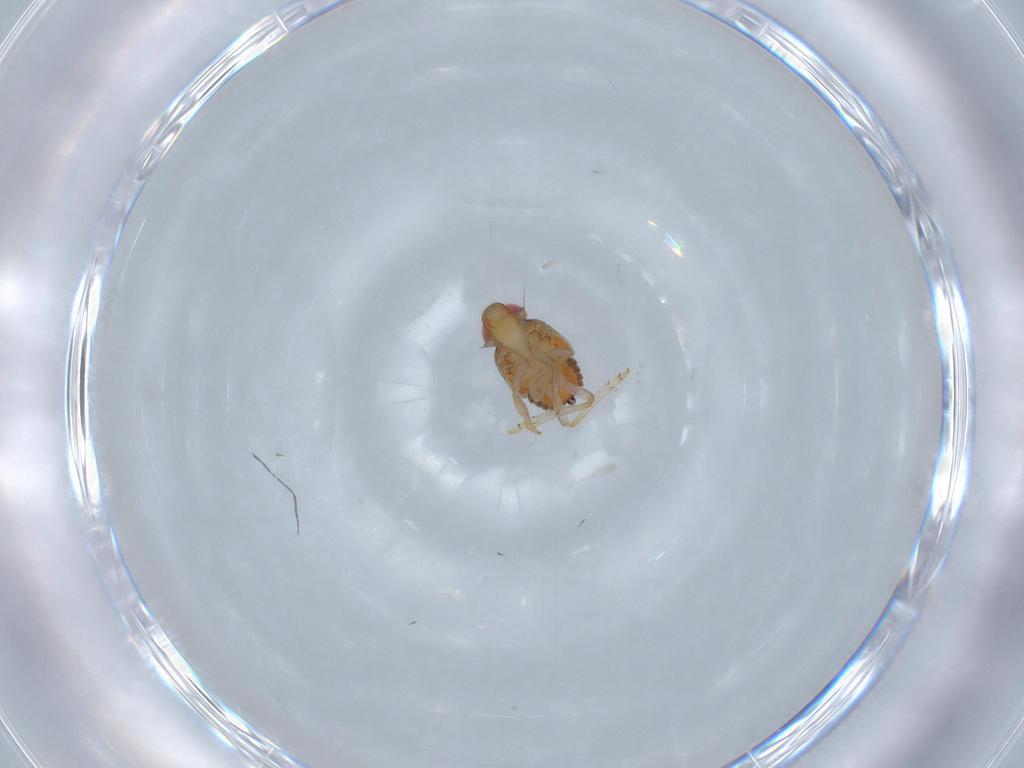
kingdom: Animalia
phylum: Arthropoda
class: Insecta
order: Hemiptera
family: Issidae
